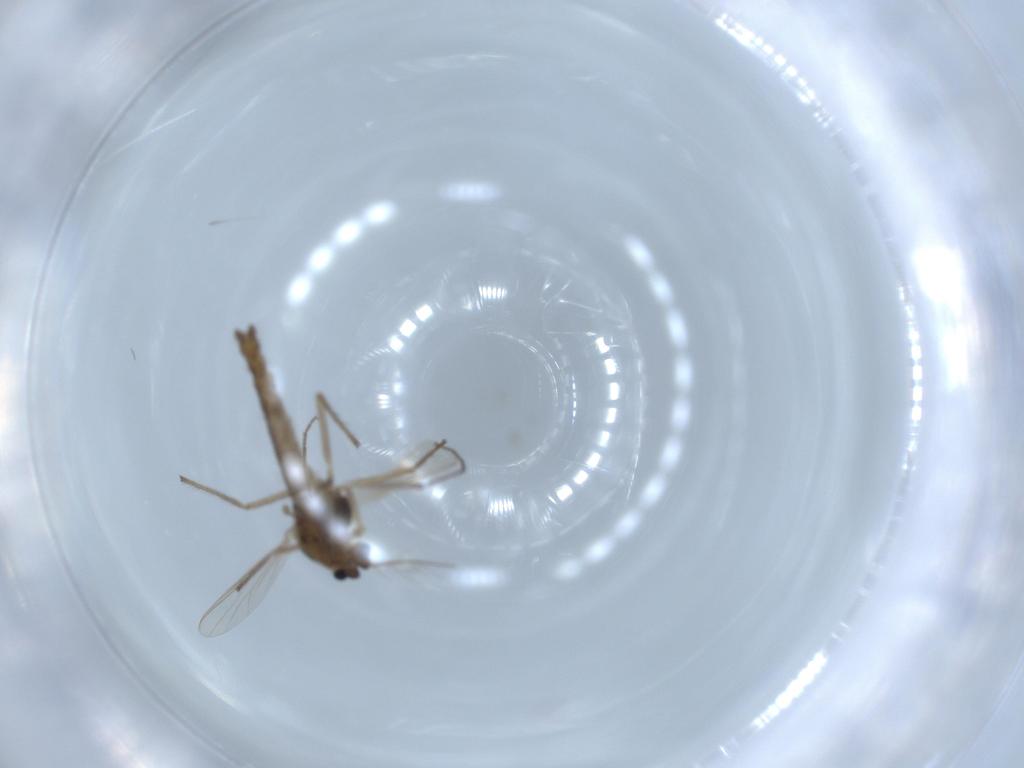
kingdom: Animalia
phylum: Arthropoda
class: Insecta
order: Diptera
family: Chironomidae
